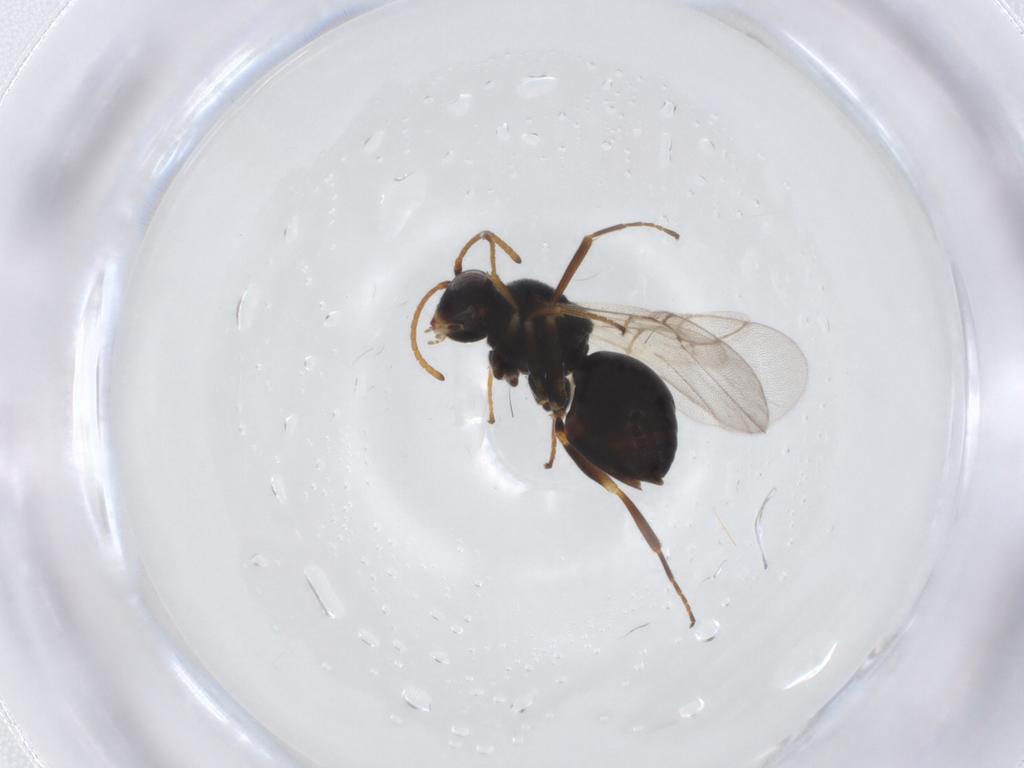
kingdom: Animalia
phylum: Arthropoda
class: Insecta
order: Hymenoptera
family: Cynipidae
